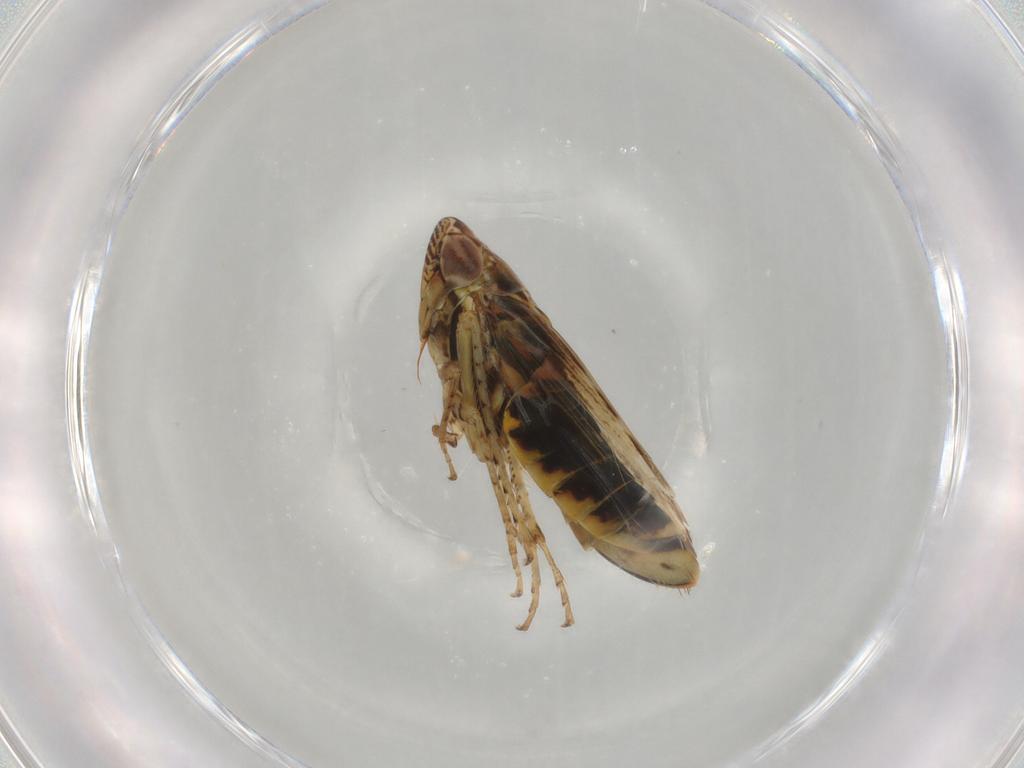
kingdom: Animalia
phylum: Arthropoda
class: Insecta
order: Hemiptera
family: Cicadellidae
